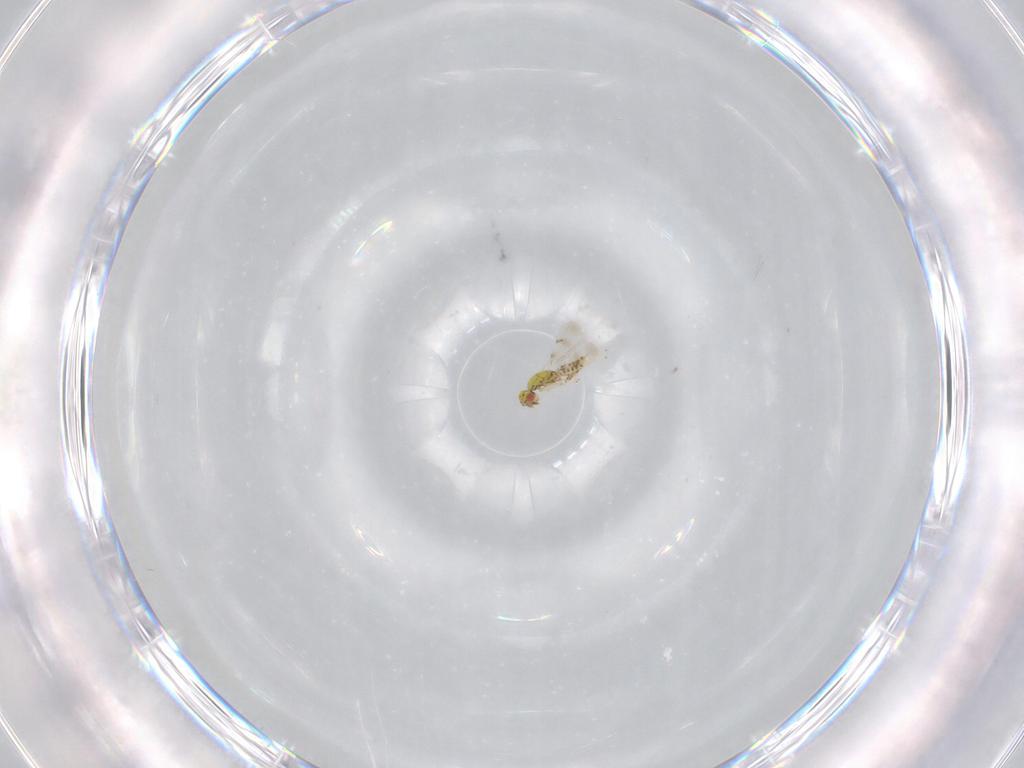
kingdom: Animalia
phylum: Arthropoda
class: Insecta
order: Hymenoptera
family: Eulophidae
